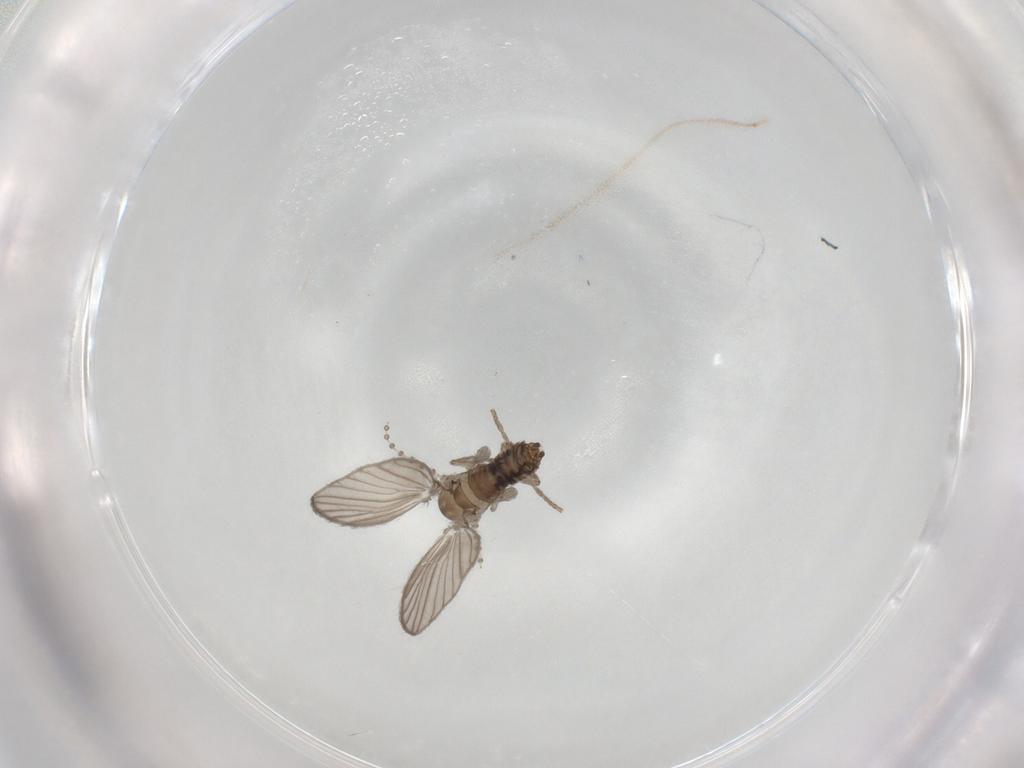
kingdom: Animalia
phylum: Arthropoda
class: Insecta
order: Diptera
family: Psychodidae
